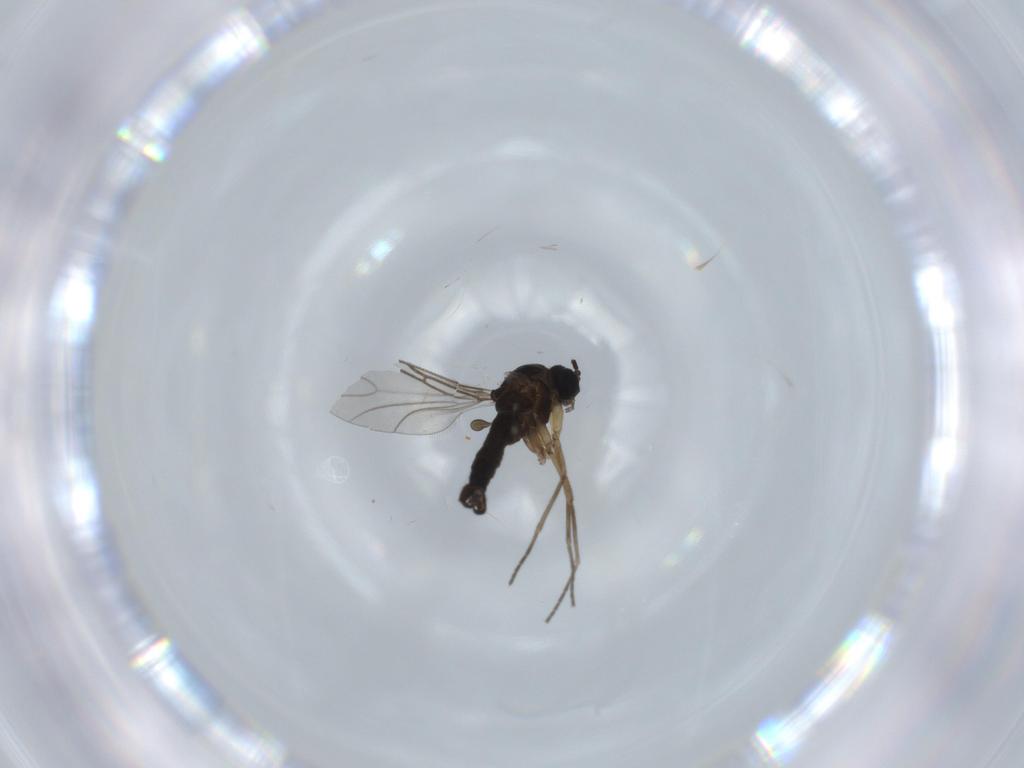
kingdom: Animalia
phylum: Arthropoda
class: Insecta
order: Diptera
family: Sciaridae
